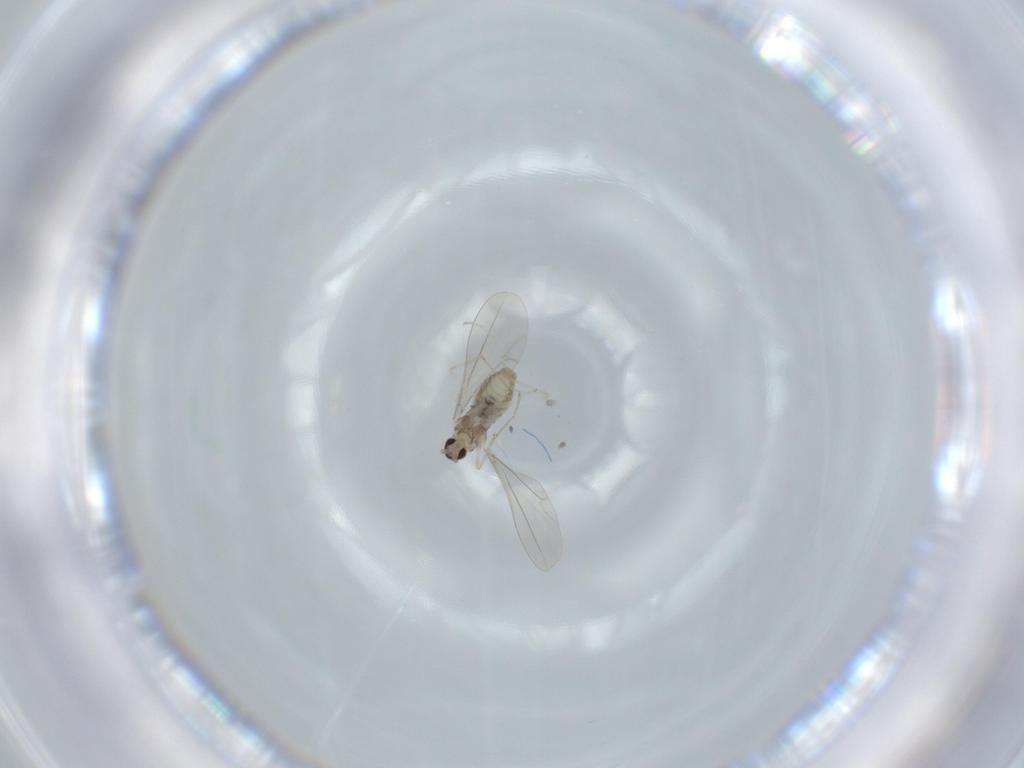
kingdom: Animalia
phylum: Arthropoda
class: Insecta
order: Diptera
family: Cecidomyiidae
